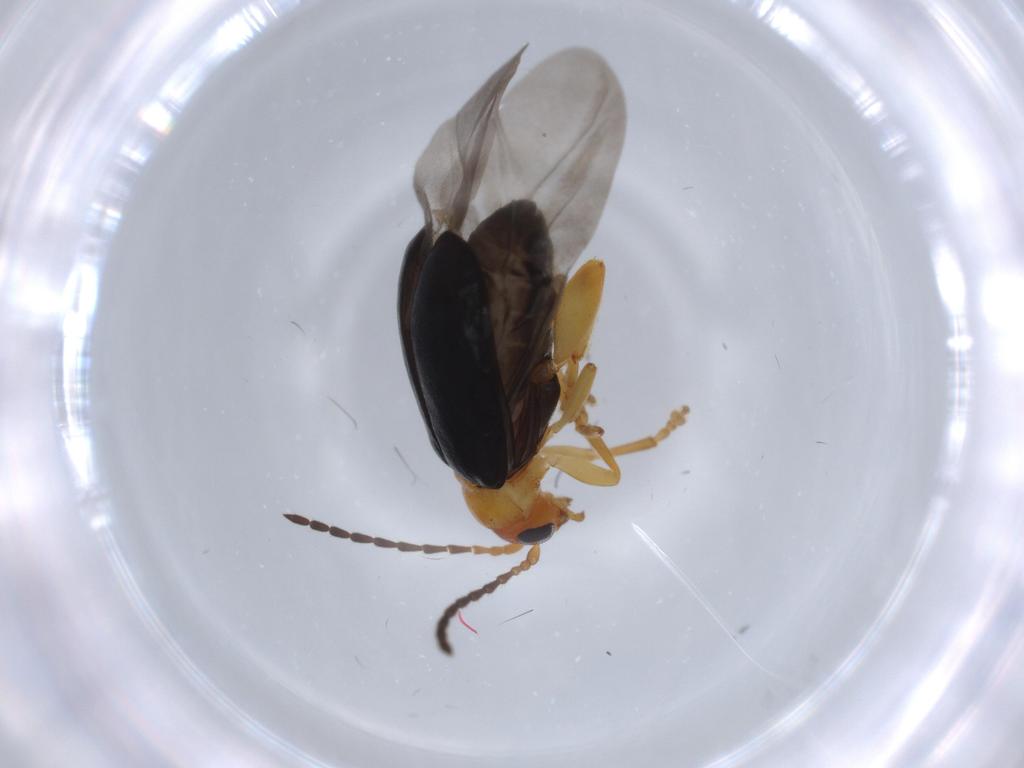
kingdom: Animalia
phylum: Arthropoda
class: Insecta
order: Coleoptera
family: Chrysomelidae
